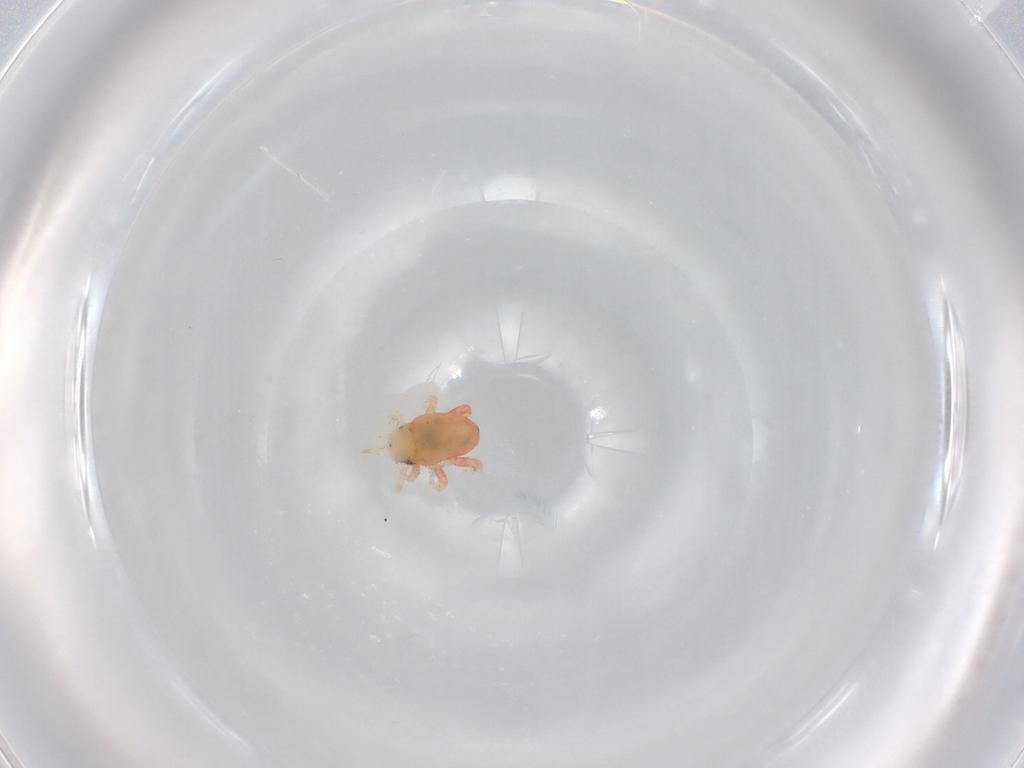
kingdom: Animalia
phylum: Arthropoda
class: Arachnida
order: Trombidiformes
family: Bdellidae
